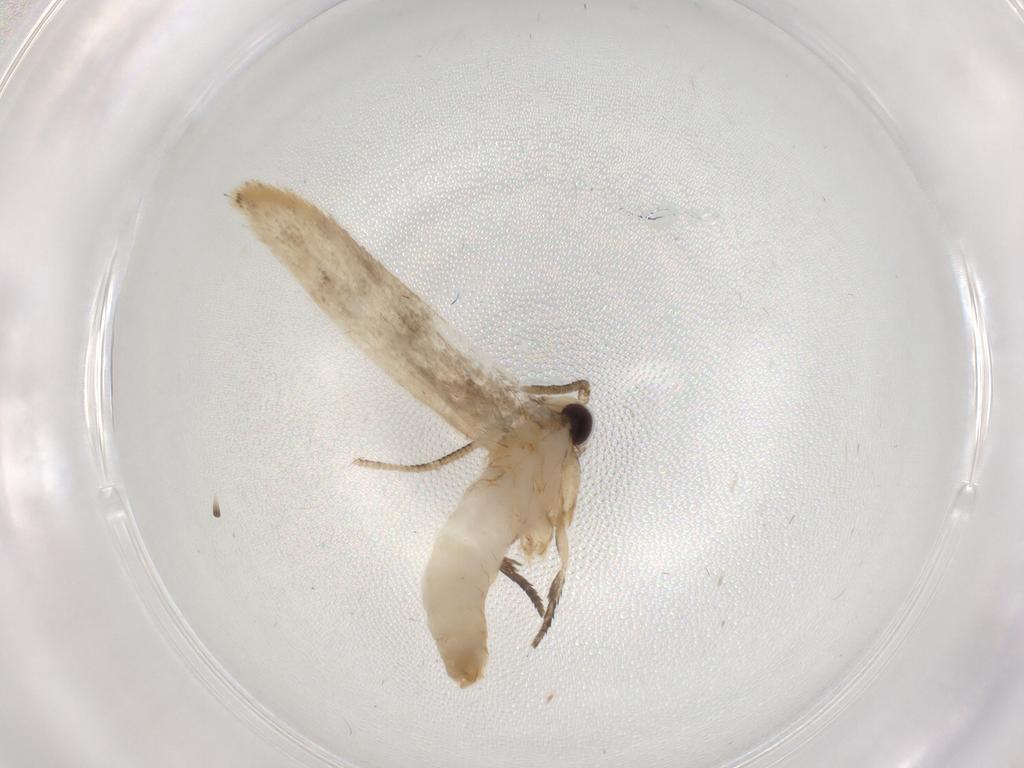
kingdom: Animalia
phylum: Arthropoda
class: Insecta
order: Lepidoptera
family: Tineidae
